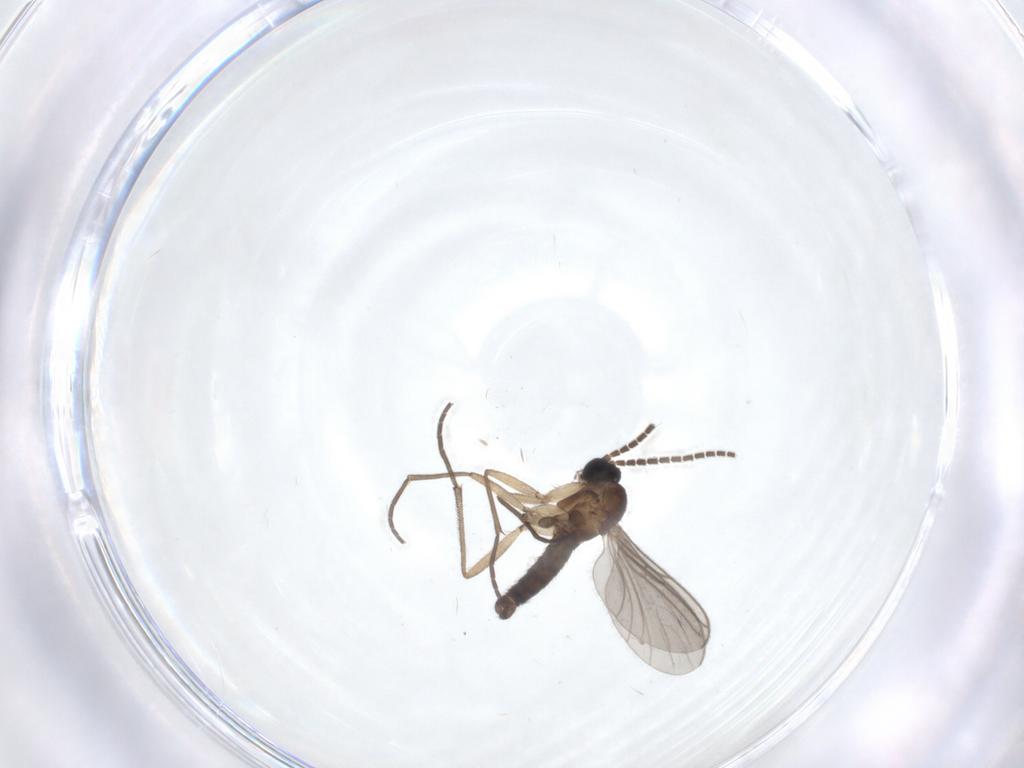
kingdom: Animalia
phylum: Arthropoda
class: Insecta
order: Diptera
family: Sciaridae
